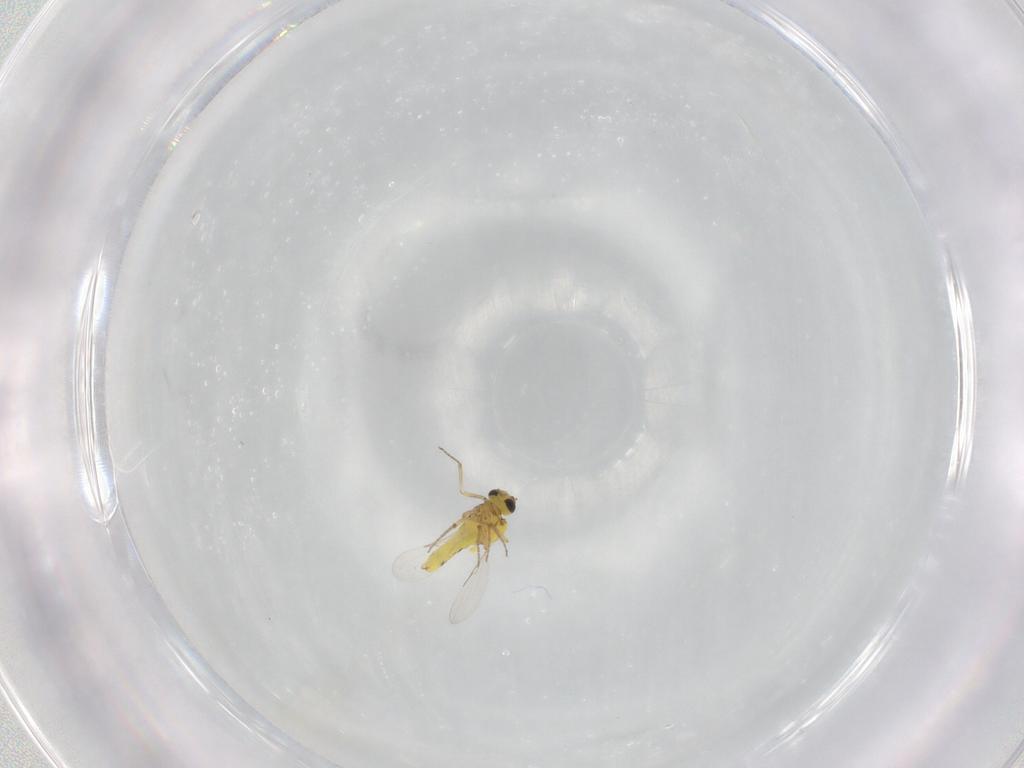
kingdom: Animalia
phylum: Arthropoda
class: Insecta
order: Diptera
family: Ceratopogonidae
